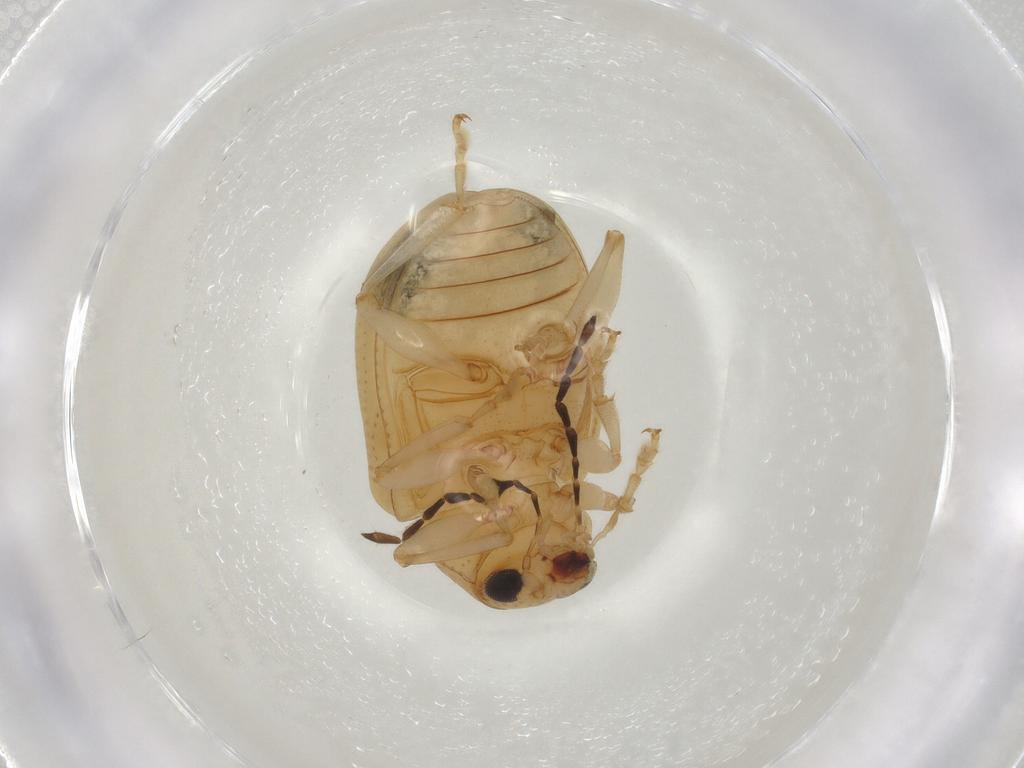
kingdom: Animalia
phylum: Arthropoda
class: Insecta
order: Coleoptera
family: Chrysomelidae
